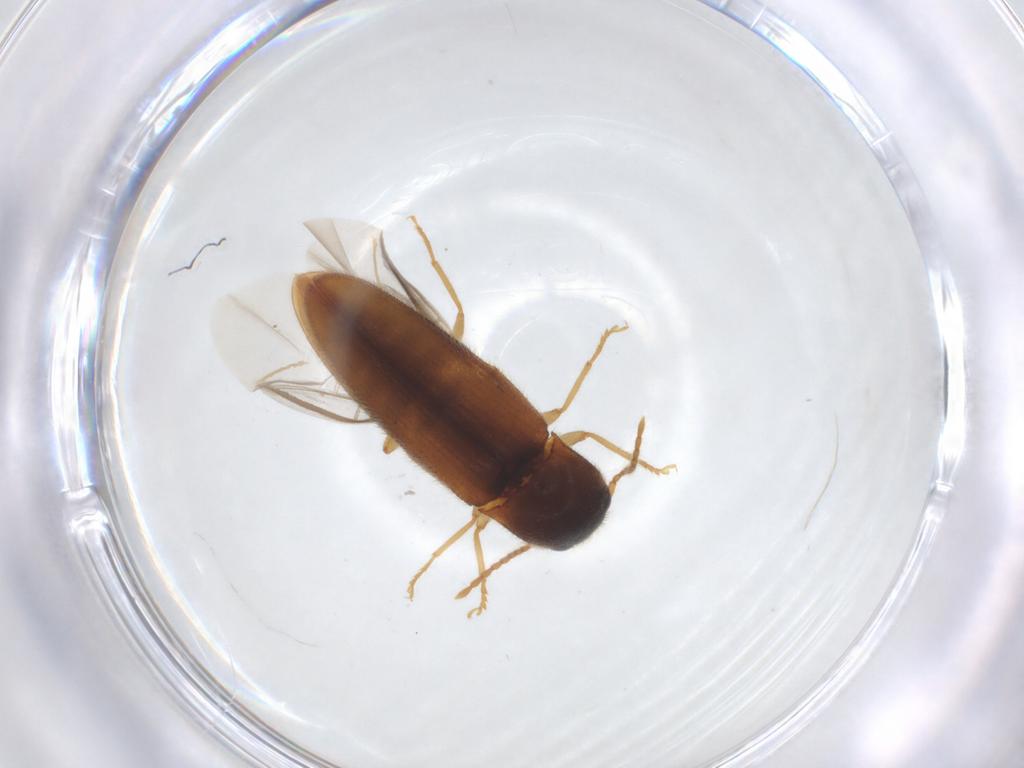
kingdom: Animalia
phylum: Arthropoda
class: Insecta
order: Coleoptera
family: Elateridae
